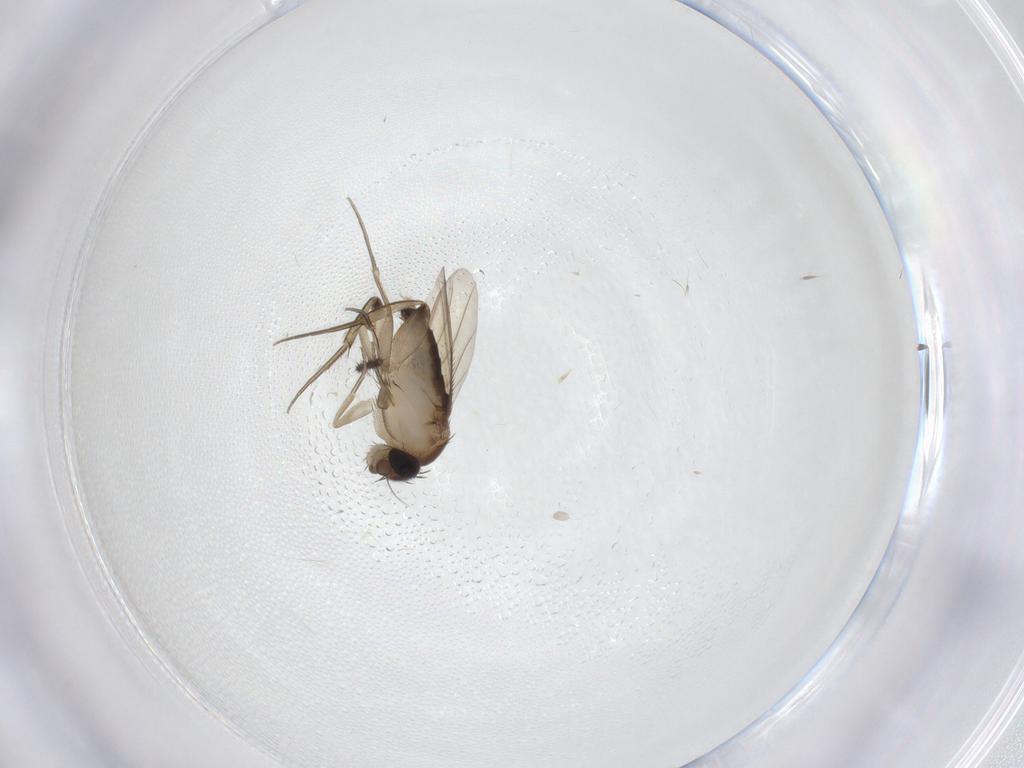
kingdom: Animalia
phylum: Arthropoda
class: Insecta
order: Diptera
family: Phoridae
